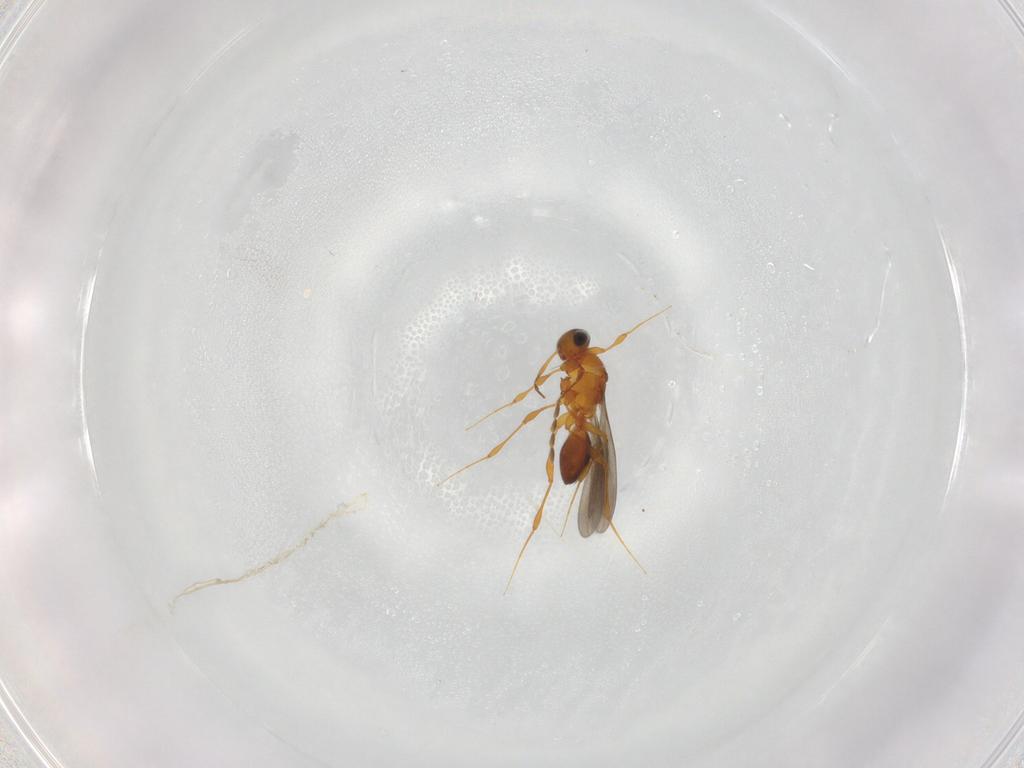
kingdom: Animalia
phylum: Arthropoda
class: Insecta
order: Hymenoptera
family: Platygastridae
